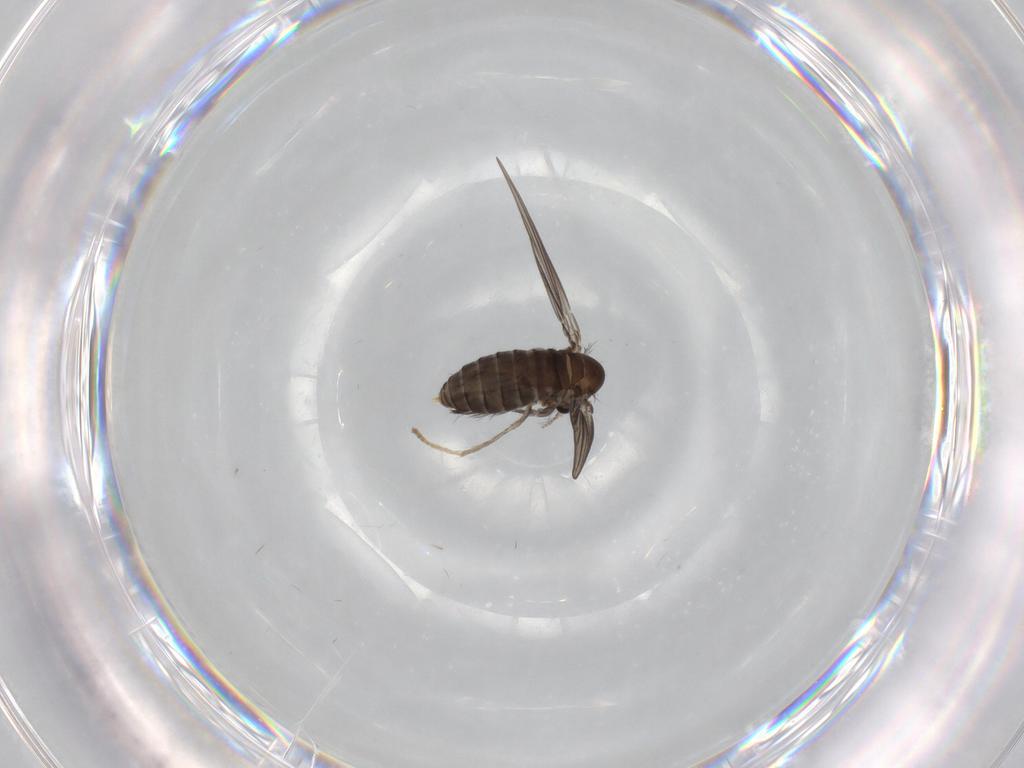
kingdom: Animalia
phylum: Arthropoda
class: Insecta
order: Diptera
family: Psychodidae
